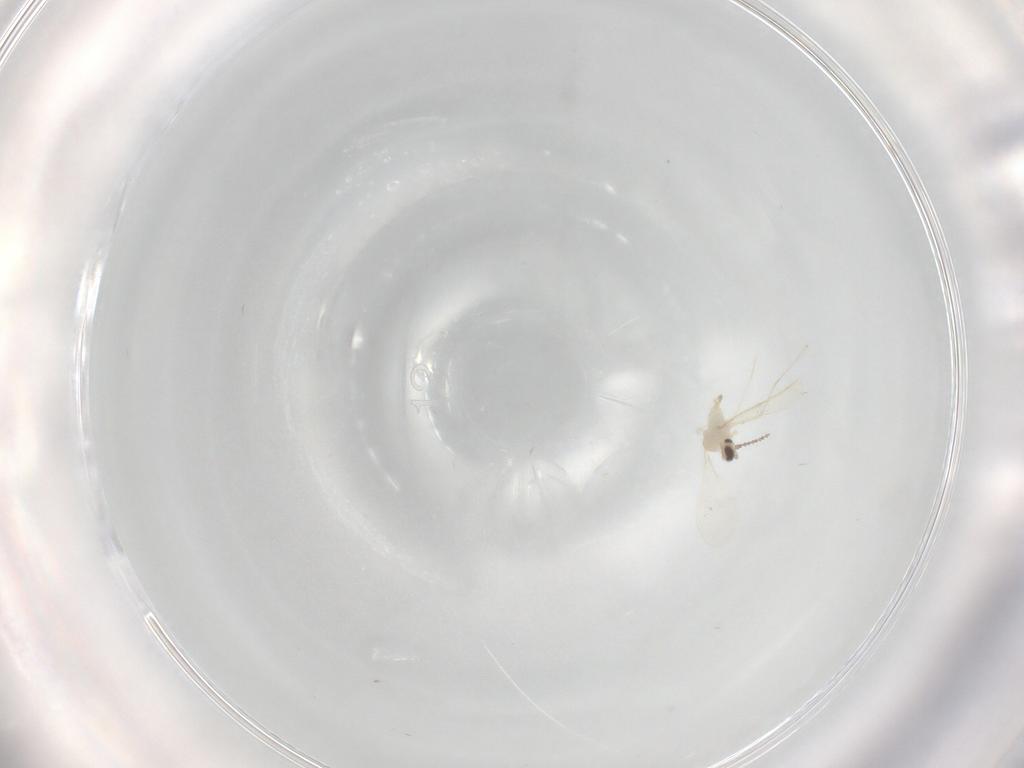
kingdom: Animalia
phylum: Arthropoda
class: Insecta
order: Diptera
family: Cecidomyiidae
